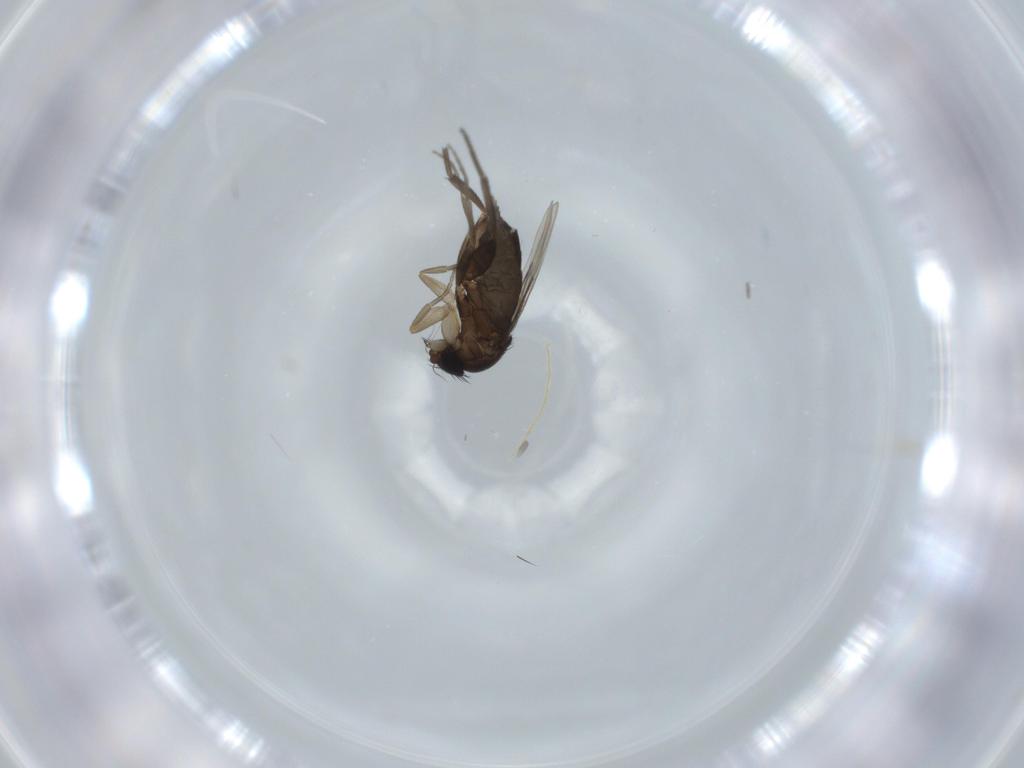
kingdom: Animalia
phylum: Arthropoda
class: Insecta
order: Diptera
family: Phoridae
